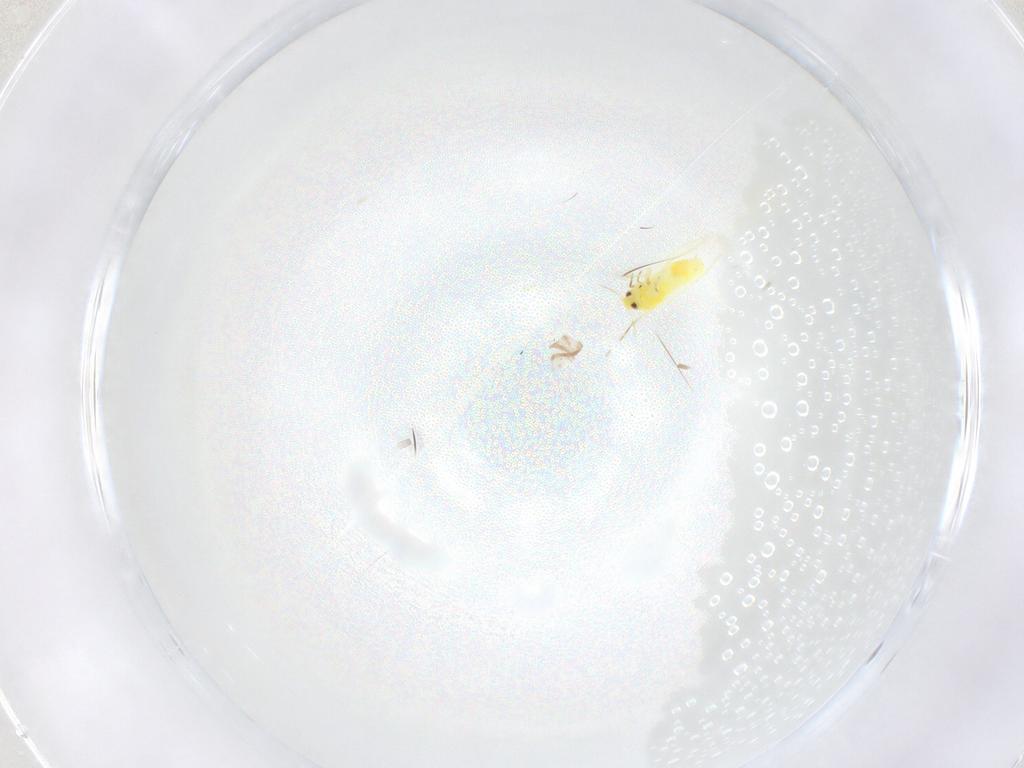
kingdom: Animalia
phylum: Arthropoda
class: Insecta
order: Hemiptera
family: Aleyrodidae
